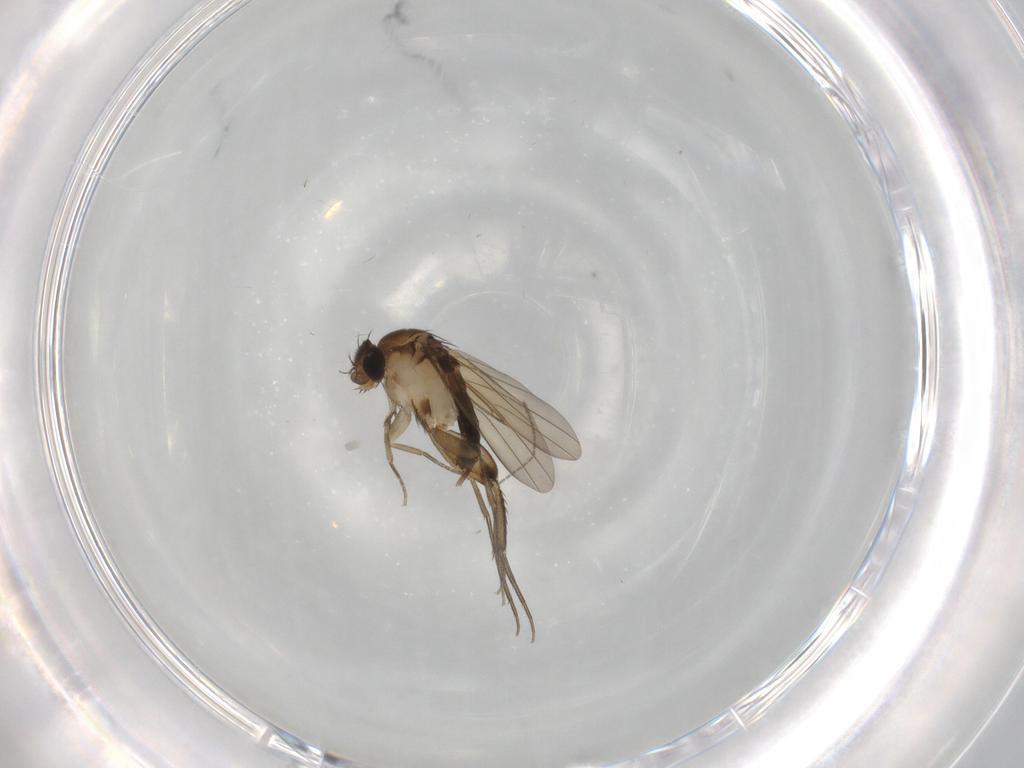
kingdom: Animalia
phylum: Arthropoda
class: Insecta
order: Diptera
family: Phoridae
